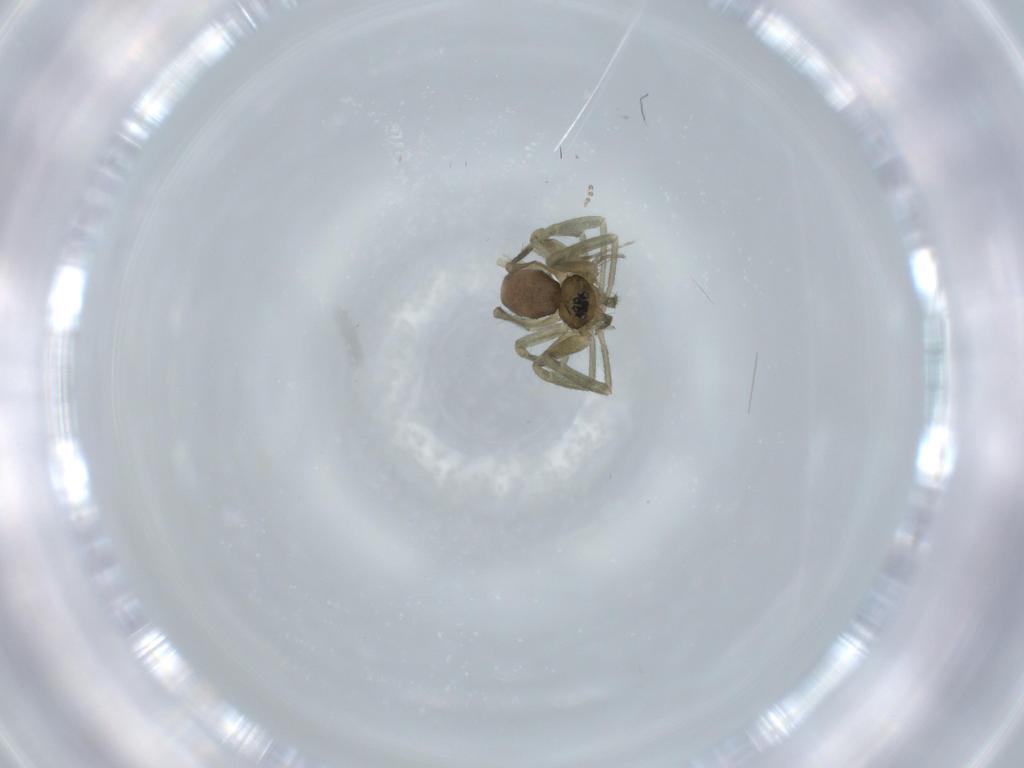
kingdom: Animalia
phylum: Arthropoda
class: Arachnida
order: Araneae
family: Linyphiidae
